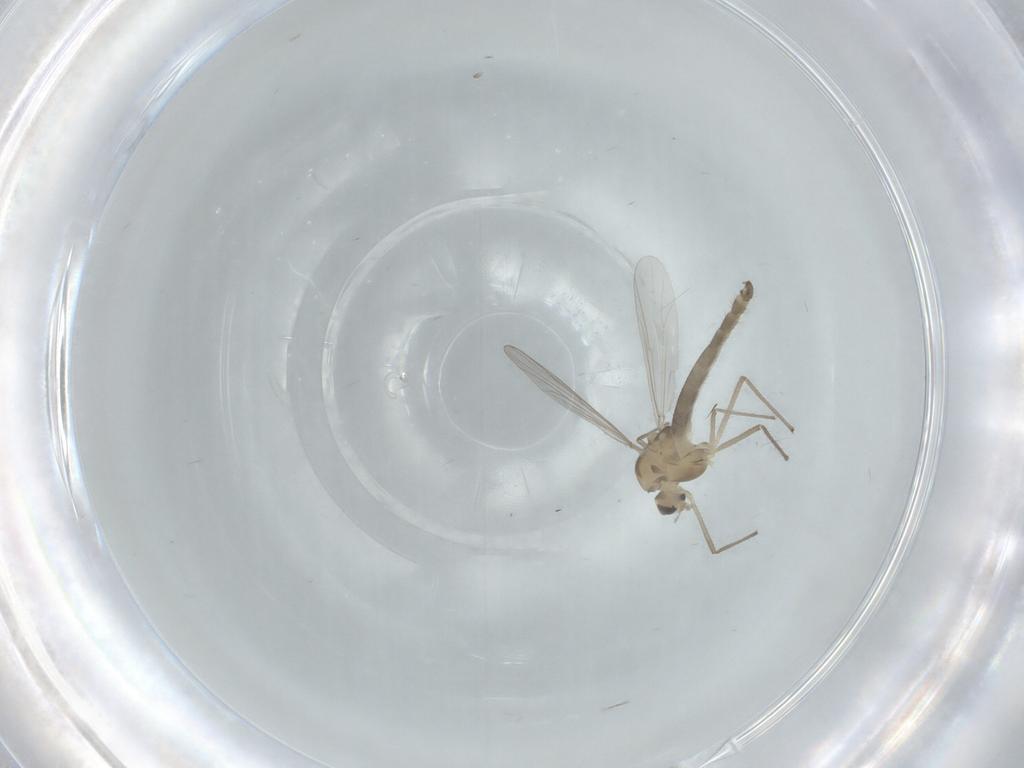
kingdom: Animalia
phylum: Arthropoda
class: Insecta
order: Diptera
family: Chironomidae
